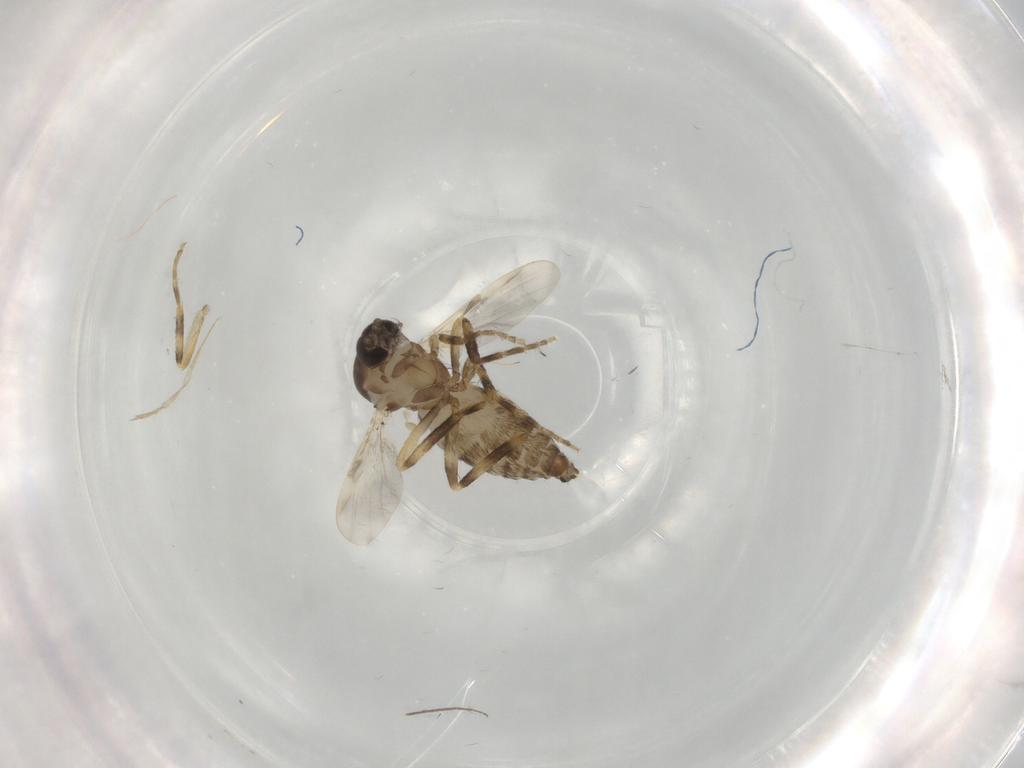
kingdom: Animalia
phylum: Arthropoda
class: Insecta
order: Diptera
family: Ceratopogonidae
